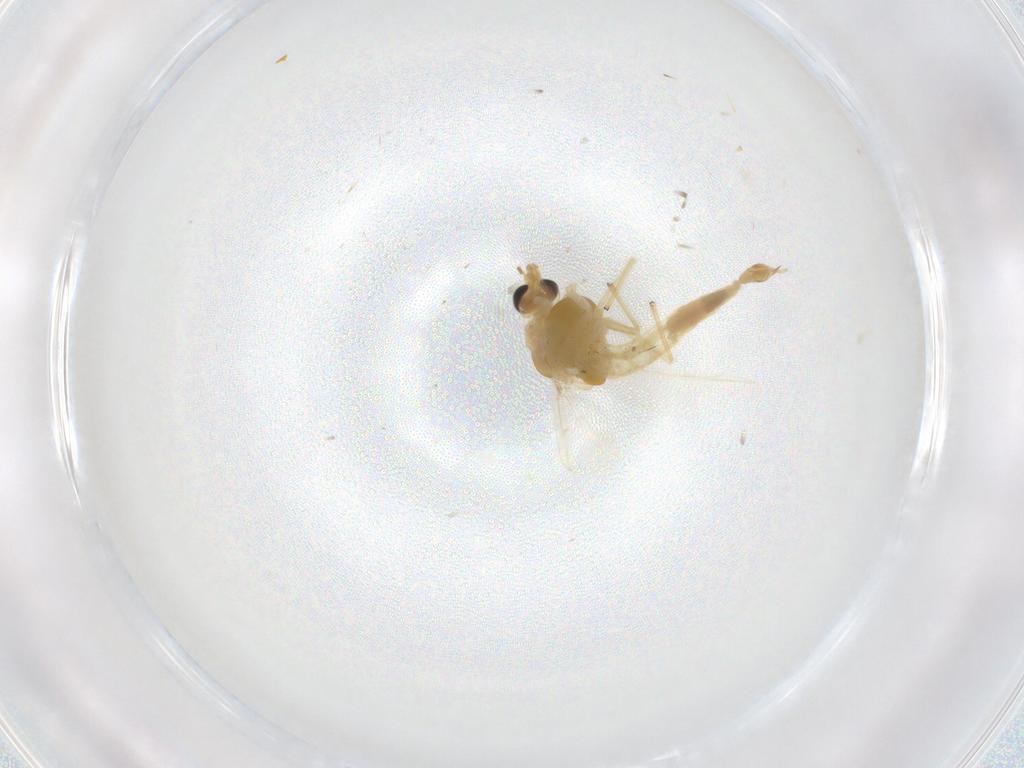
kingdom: Animalia
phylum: Arthropoda
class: Insecta
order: Diptera
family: Chironomidae
